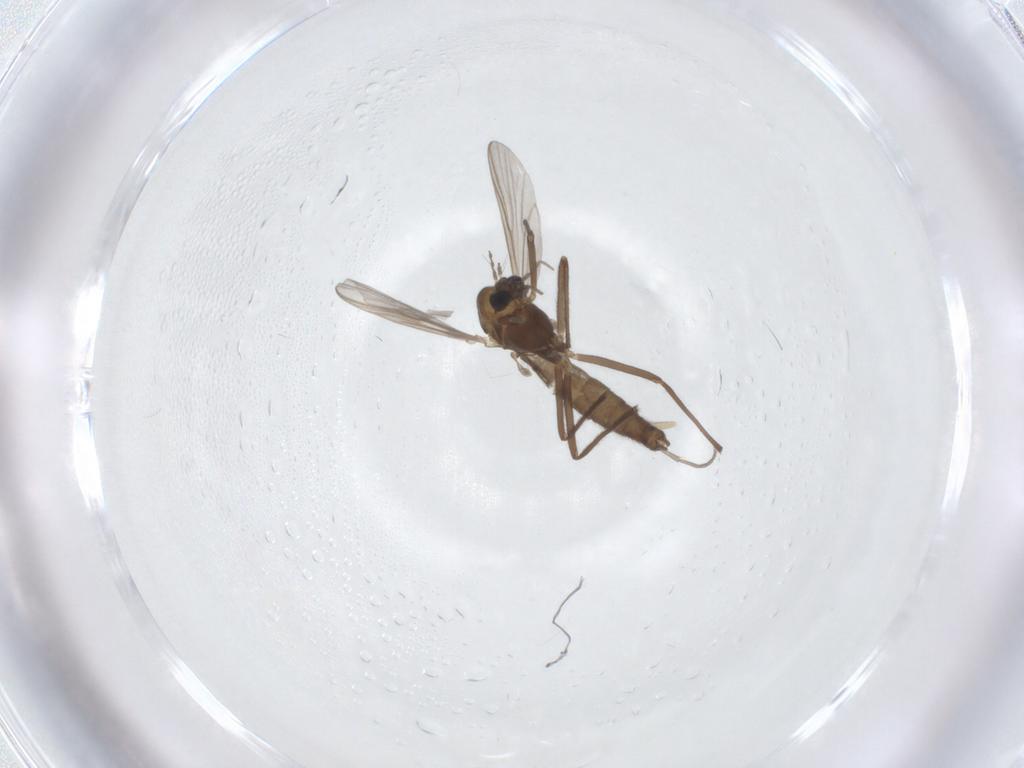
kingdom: Animalia
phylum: Arthropoda
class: Insecta
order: Diptera
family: Chironomidae
